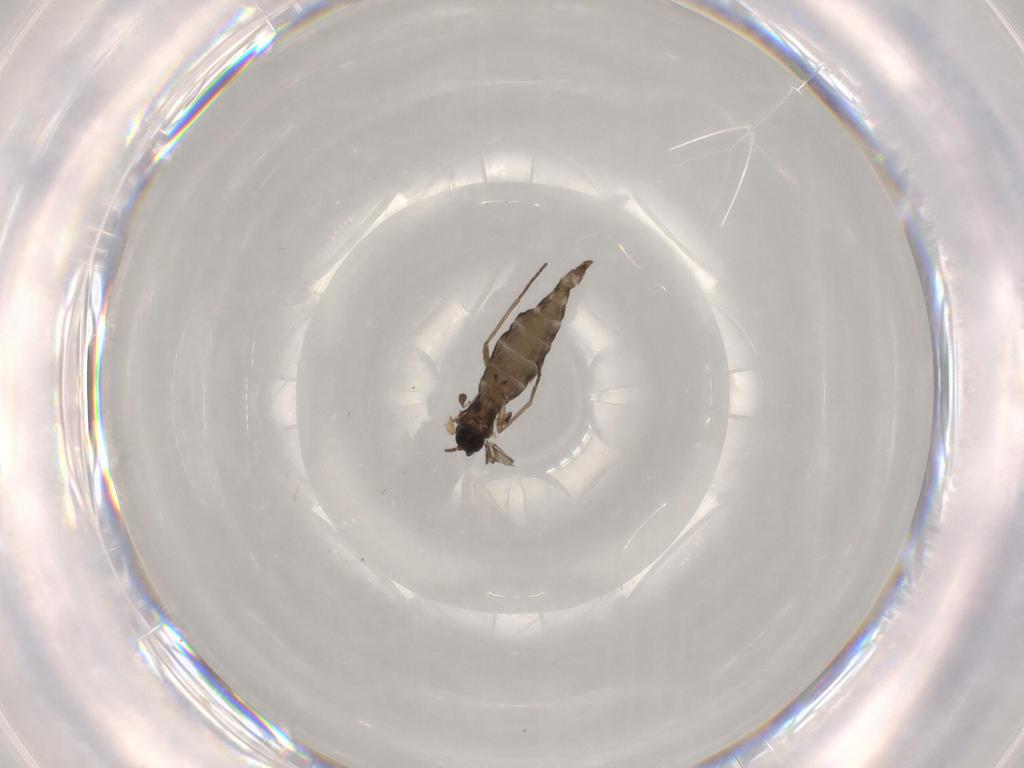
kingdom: Animalia
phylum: Arthropoda
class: Insecta
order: Diptera
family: Sciaridae
